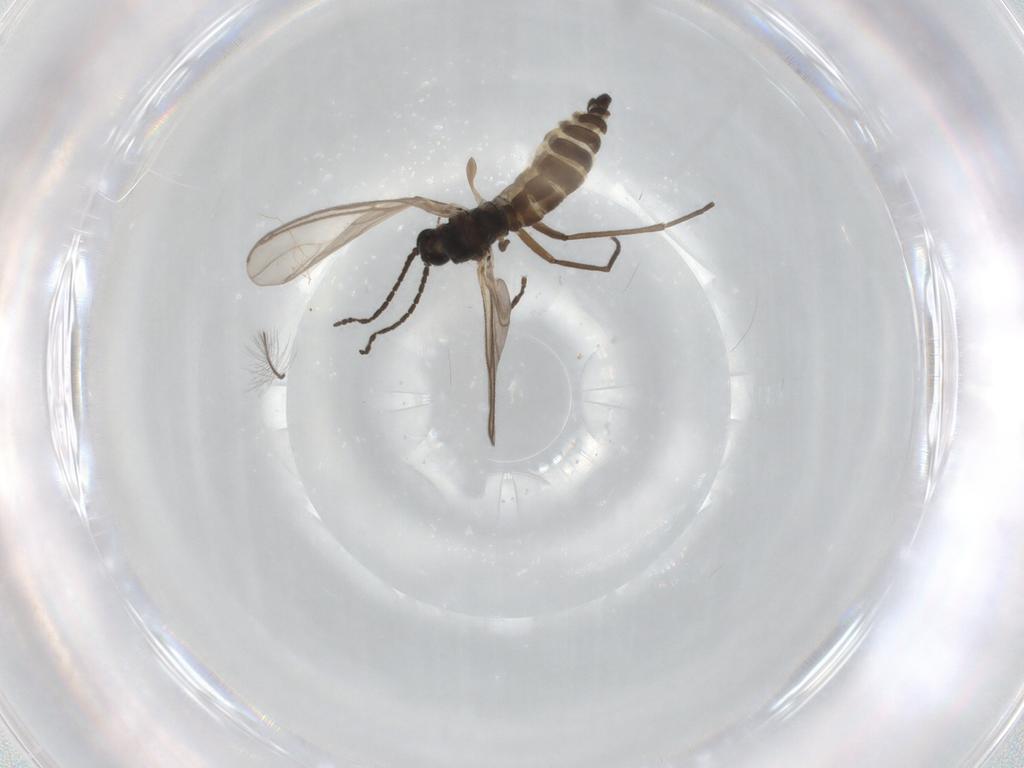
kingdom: Animalia
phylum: Arthropoda
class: Insecta
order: Diptera
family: Sciaridae
